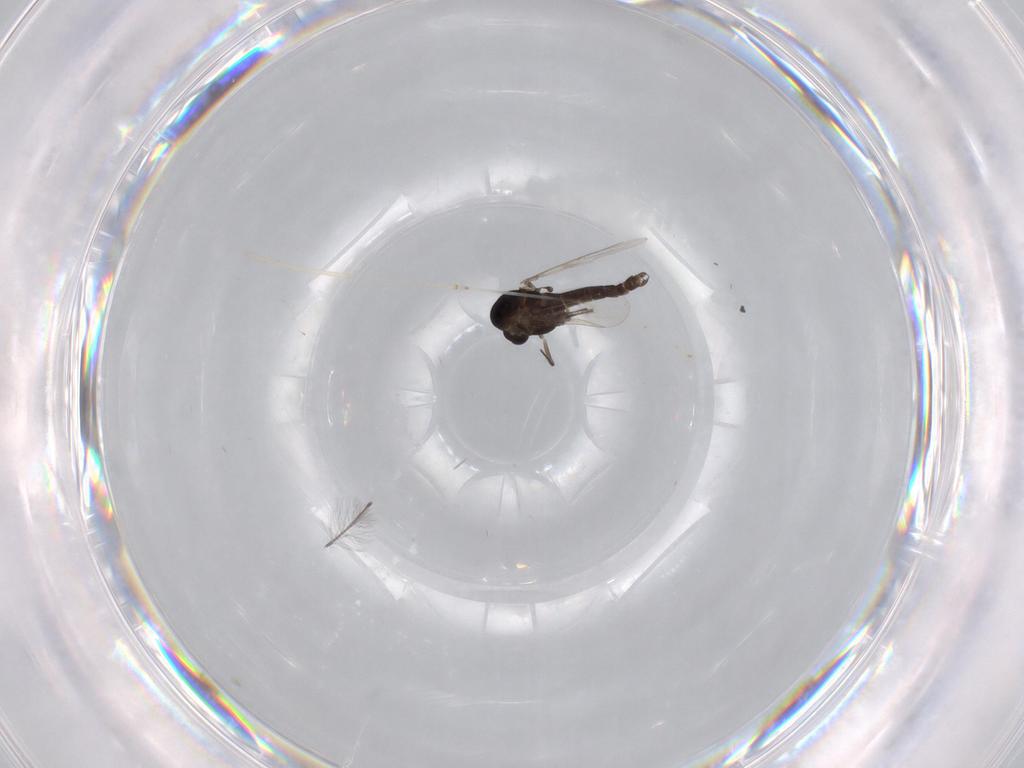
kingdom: Animalia
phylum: Arthropoda
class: Insecta
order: Diptera
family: Chironomidae
